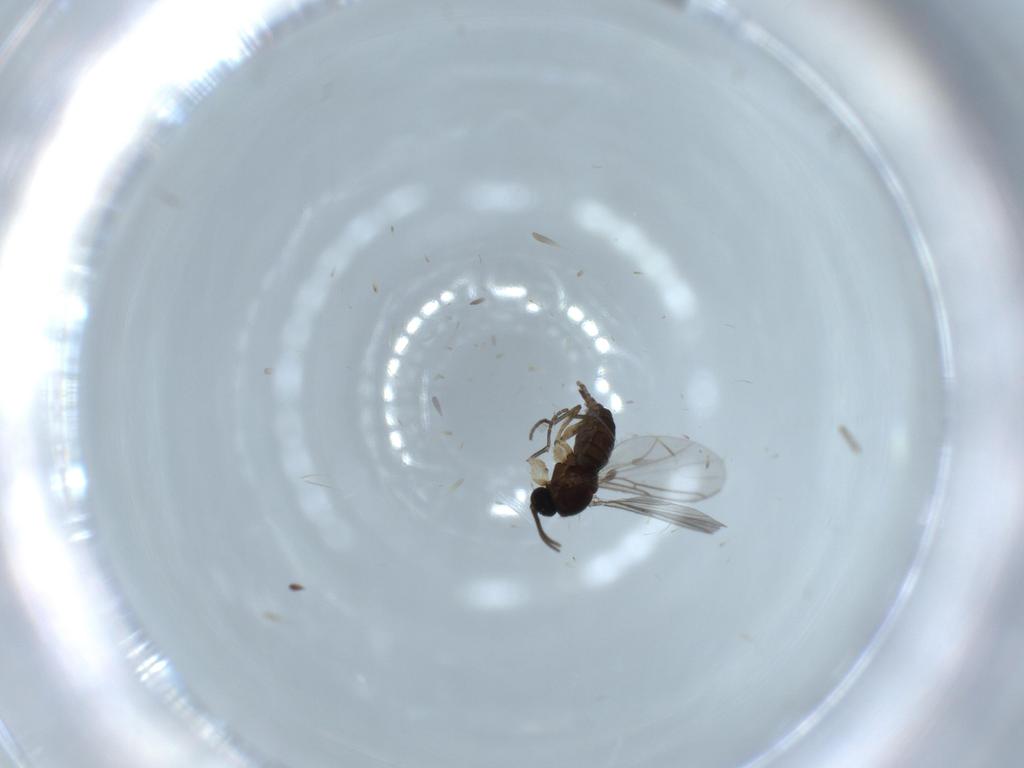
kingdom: Animalia
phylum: Arthropoda
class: Insecta
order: Diptera
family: Sciaridae
